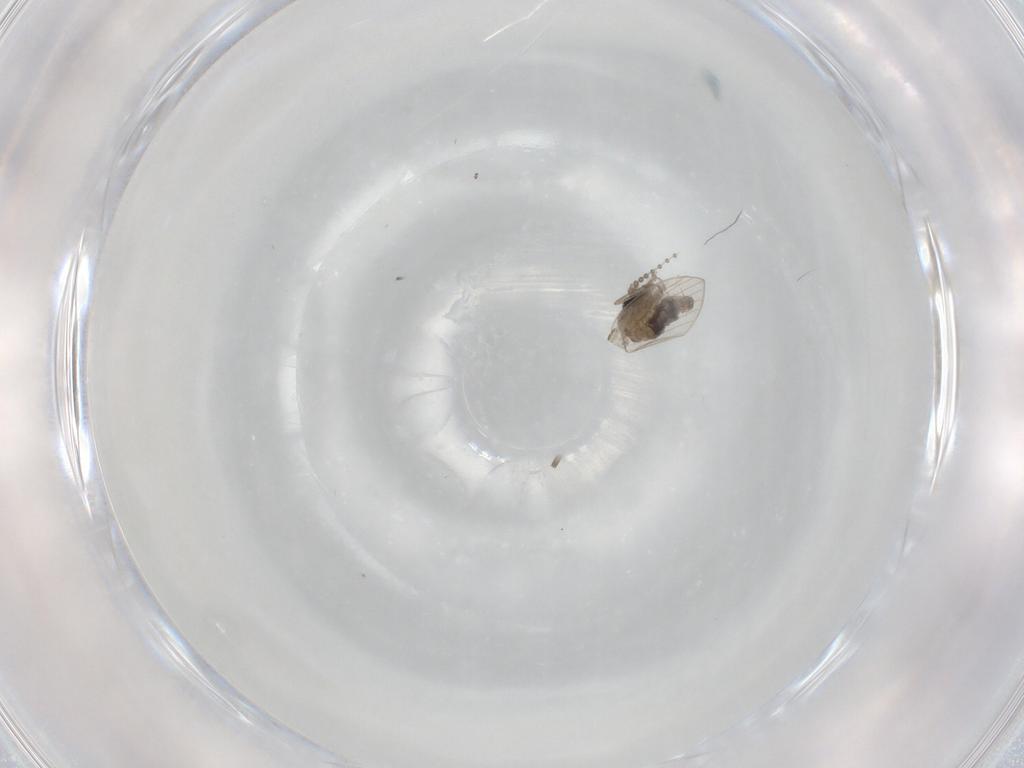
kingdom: Animalia
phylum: Arthropoda
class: Insecta
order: Diptera
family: Psychodidae
